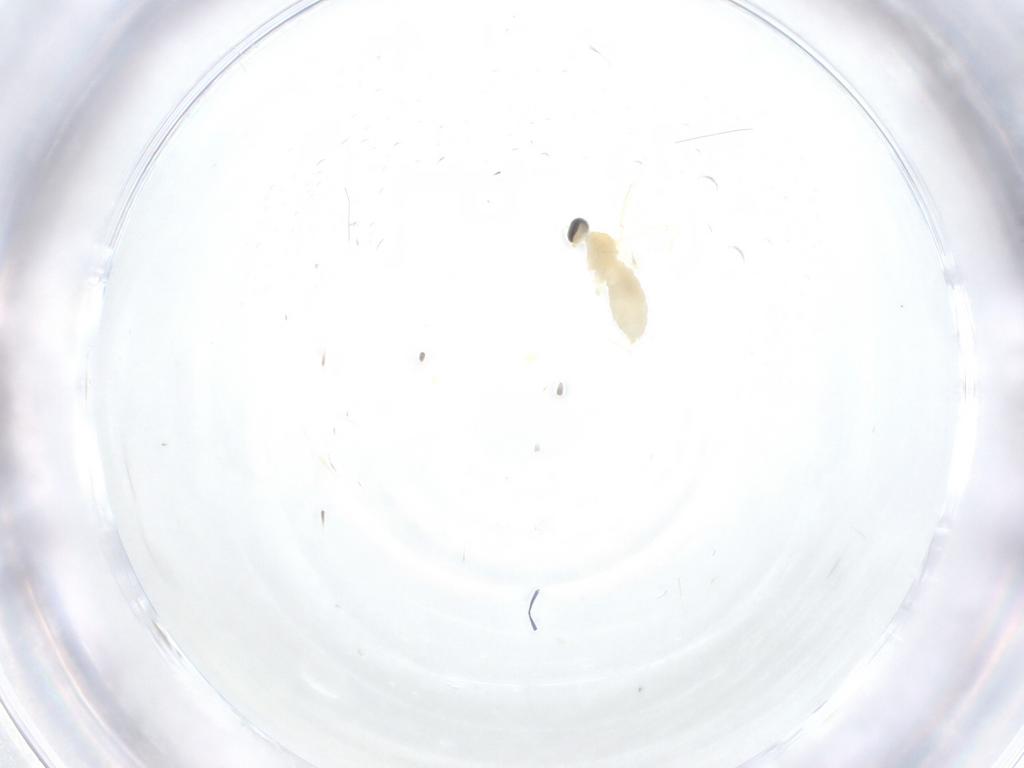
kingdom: Animalia
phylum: Arthropoda
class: Insecta
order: Diptera
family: Cecidomyiidae
